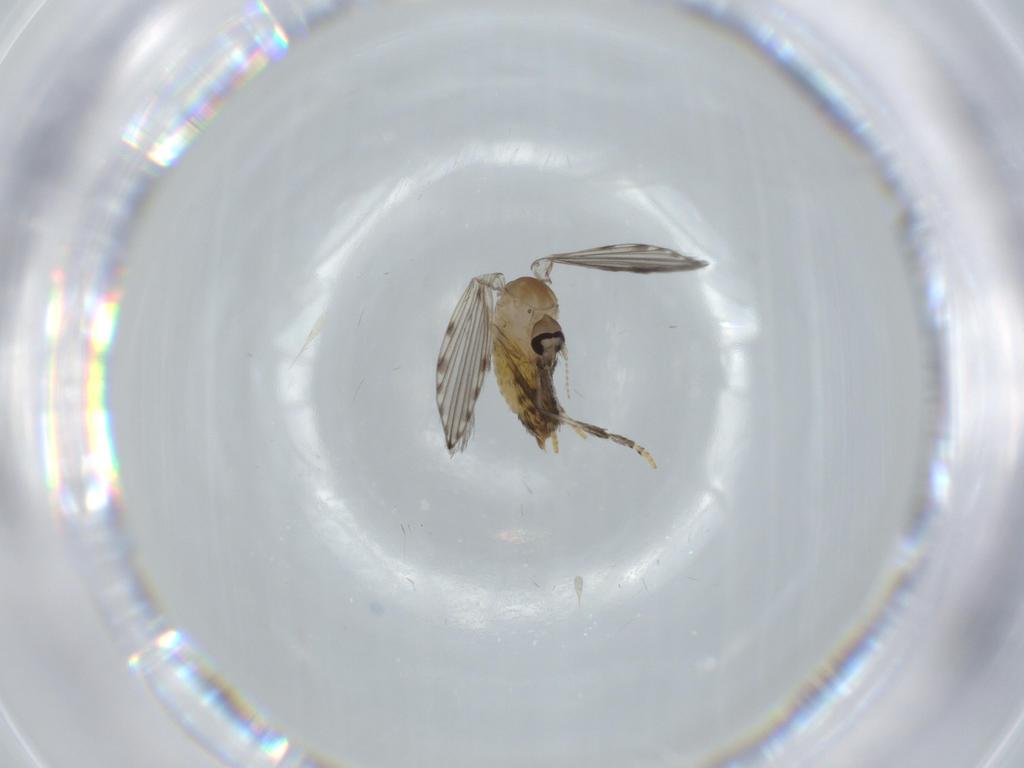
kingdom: Animalia
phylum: Arthropoda
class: Insecta
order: Diptera
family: Psychodidae
